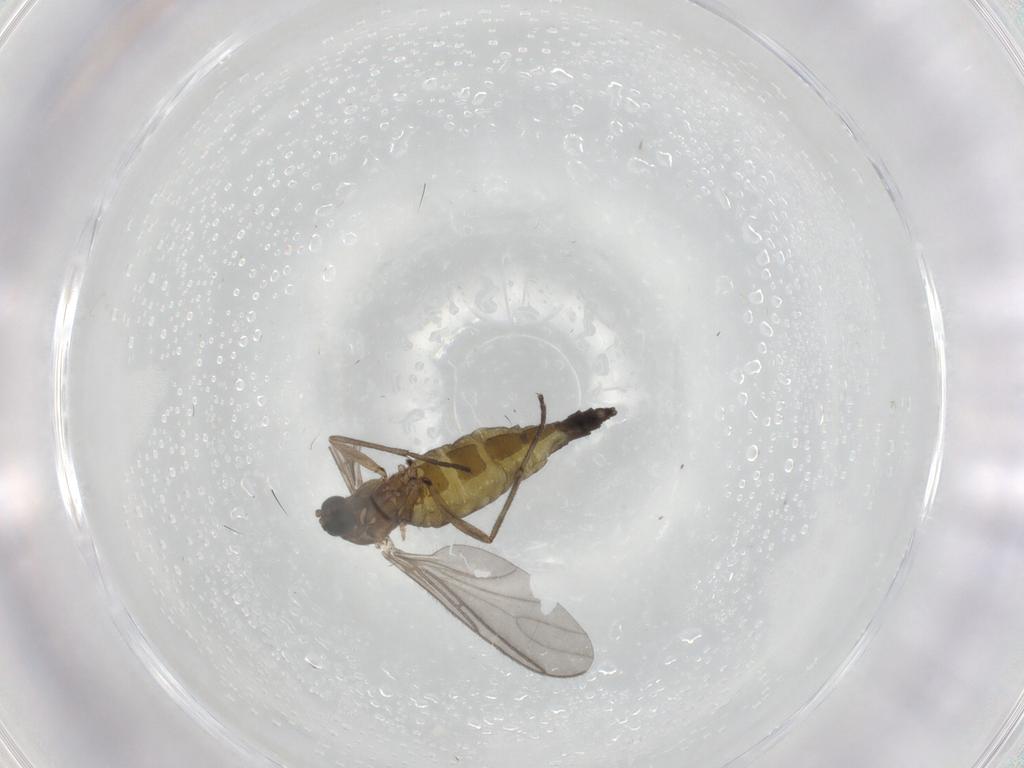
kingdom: Animalia
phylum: Arthropoda
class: Insecta
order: Diptera
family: Sciaridae
